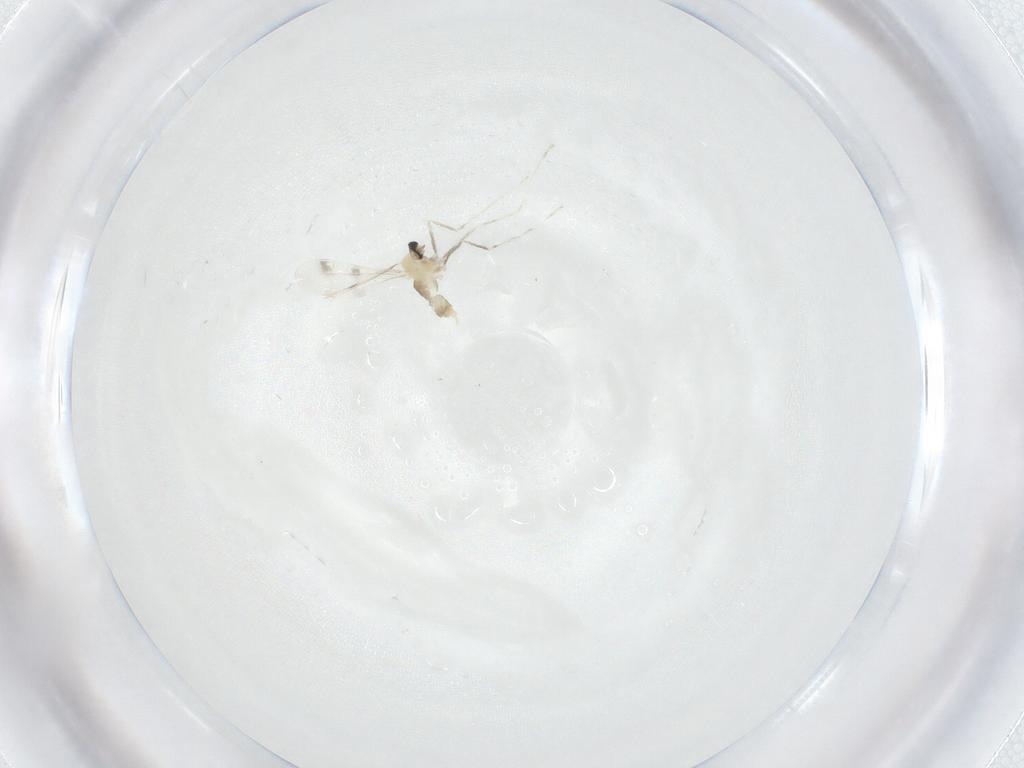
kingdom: Animalia
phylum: Arthropoda
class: Insecta
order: Diptera
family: Cecidomyiidae
